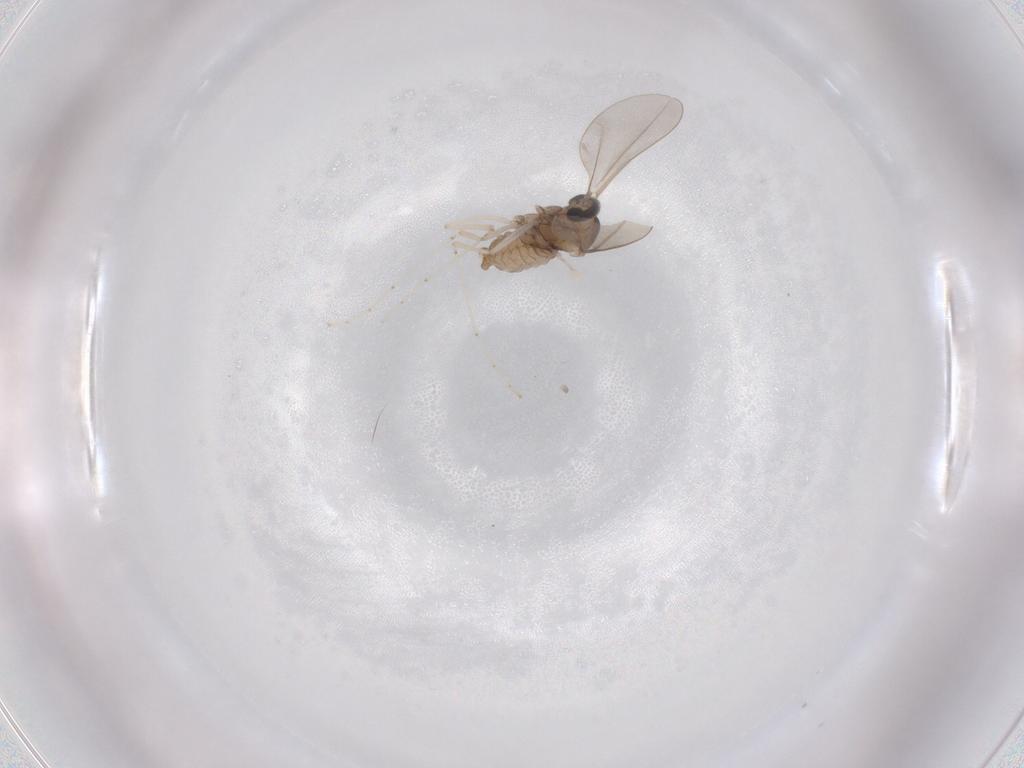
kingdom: Animalia
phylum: Arthropoda
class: Insecta
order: Diptera
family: Cecidomyiidae
